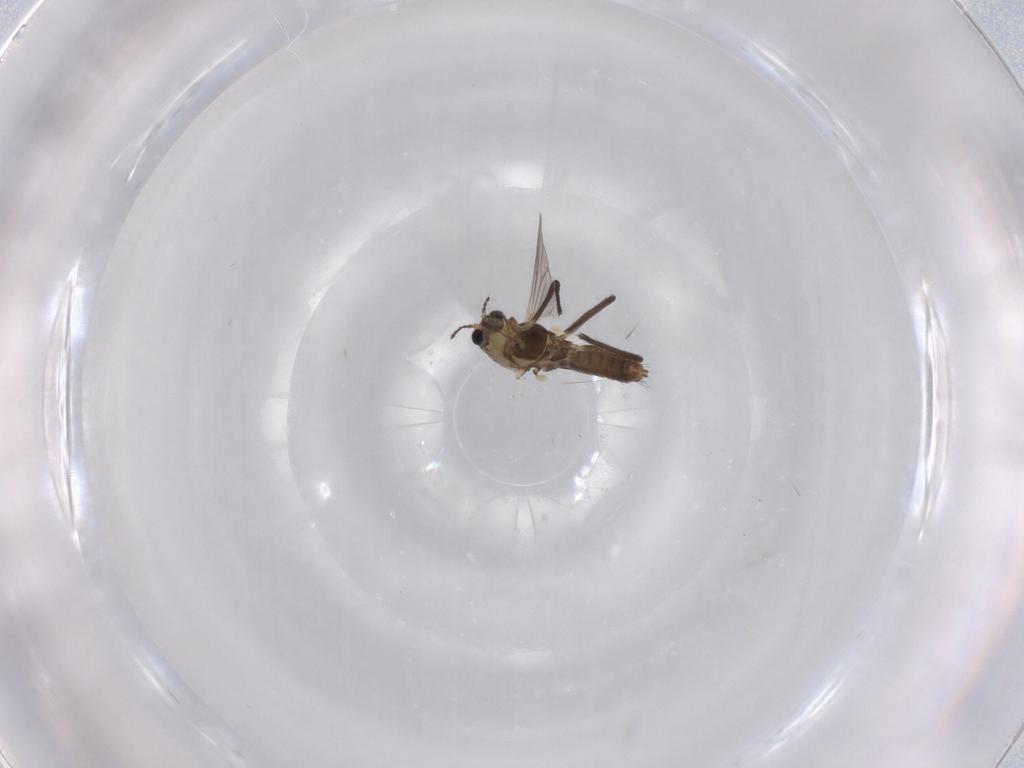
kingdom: Animalia
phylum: Arthropoda
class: Insecta
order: Diptera
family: Chironomidae
